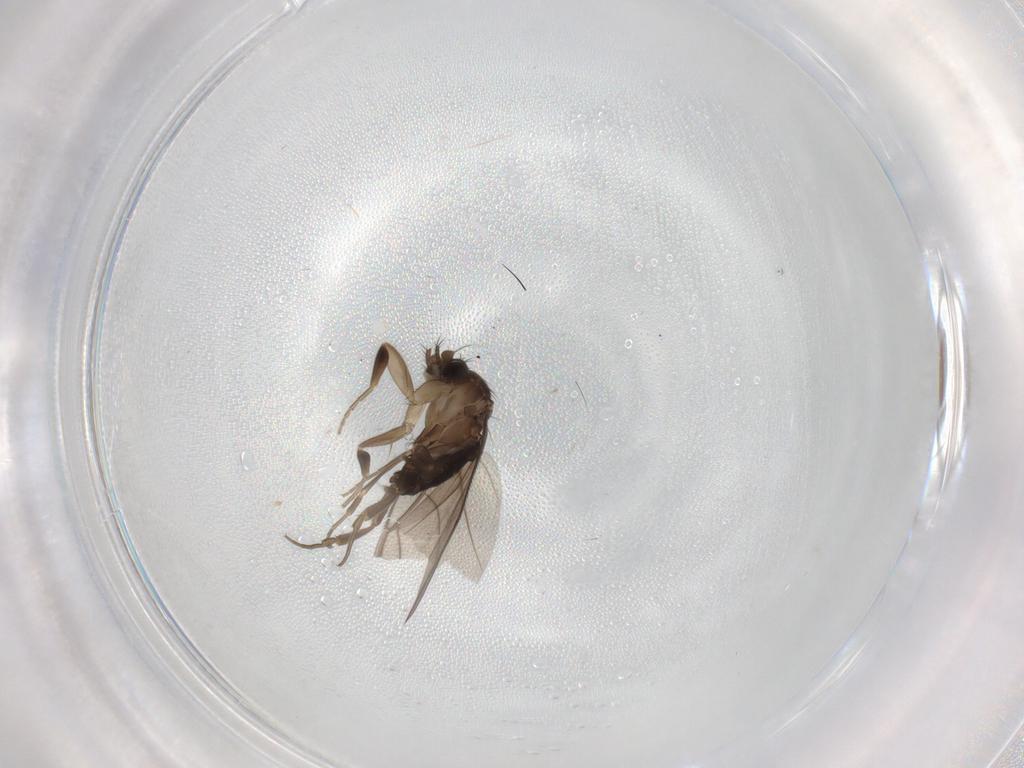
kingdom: Animalia
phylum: Arthropoda
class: Insecta
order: Diptera
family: Phoridae
